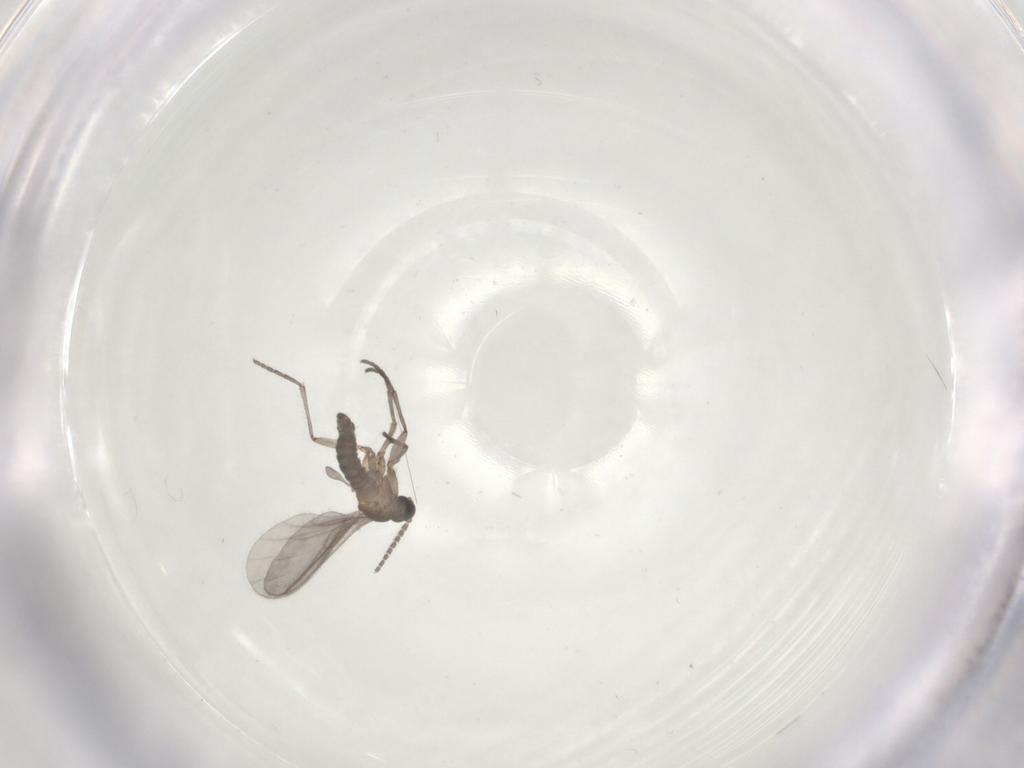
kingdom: Animalia
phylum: Arthropoda
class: Insecta
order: Diptera
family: Sciaridae
